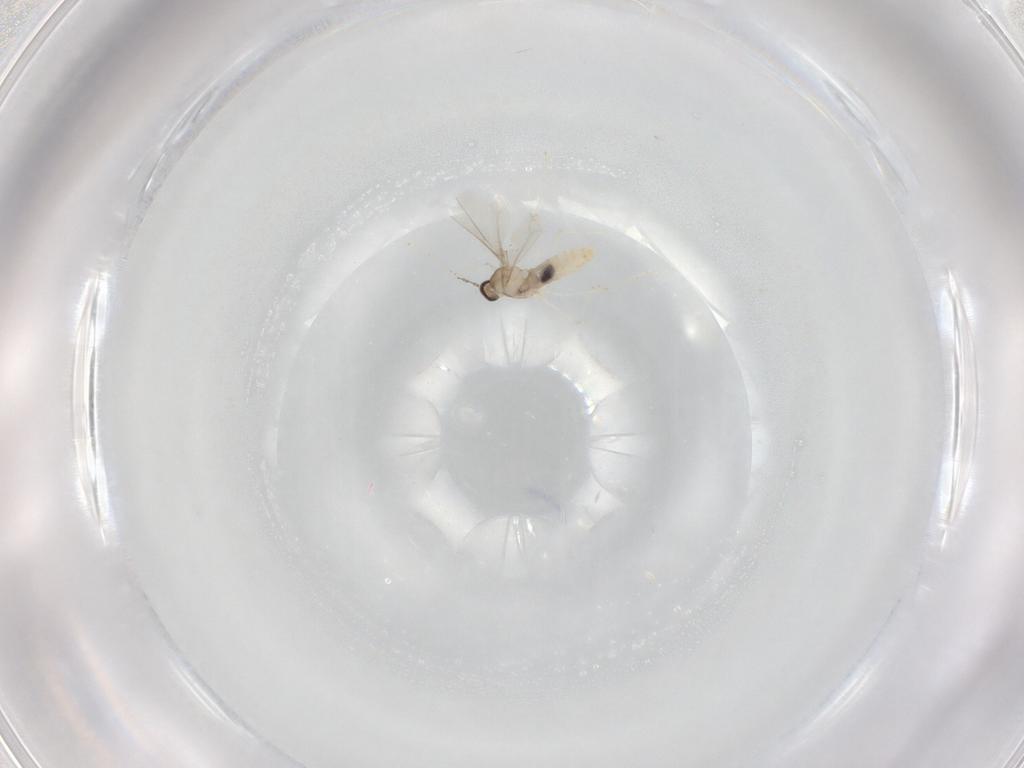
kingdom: Animalia
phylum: Arthropoda
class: Insecta
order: Diptera
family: Cecidomyiidae
